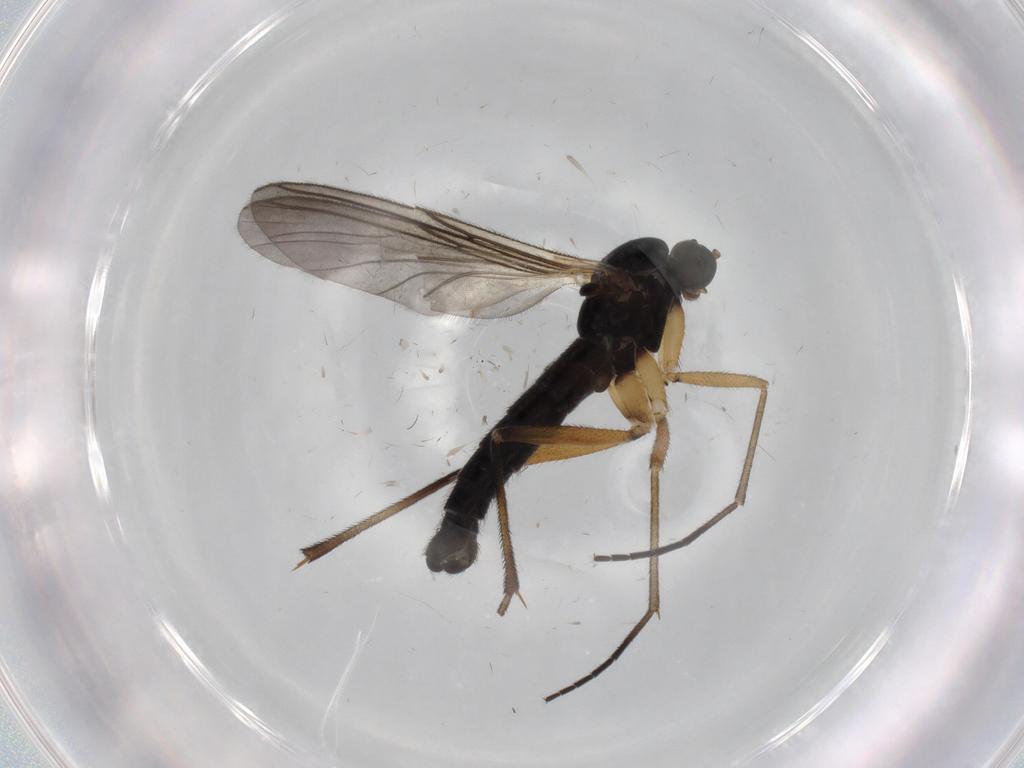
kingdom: Animalia
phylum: Arthropoda
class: Insecta
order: Diptera
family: Sciaridae
